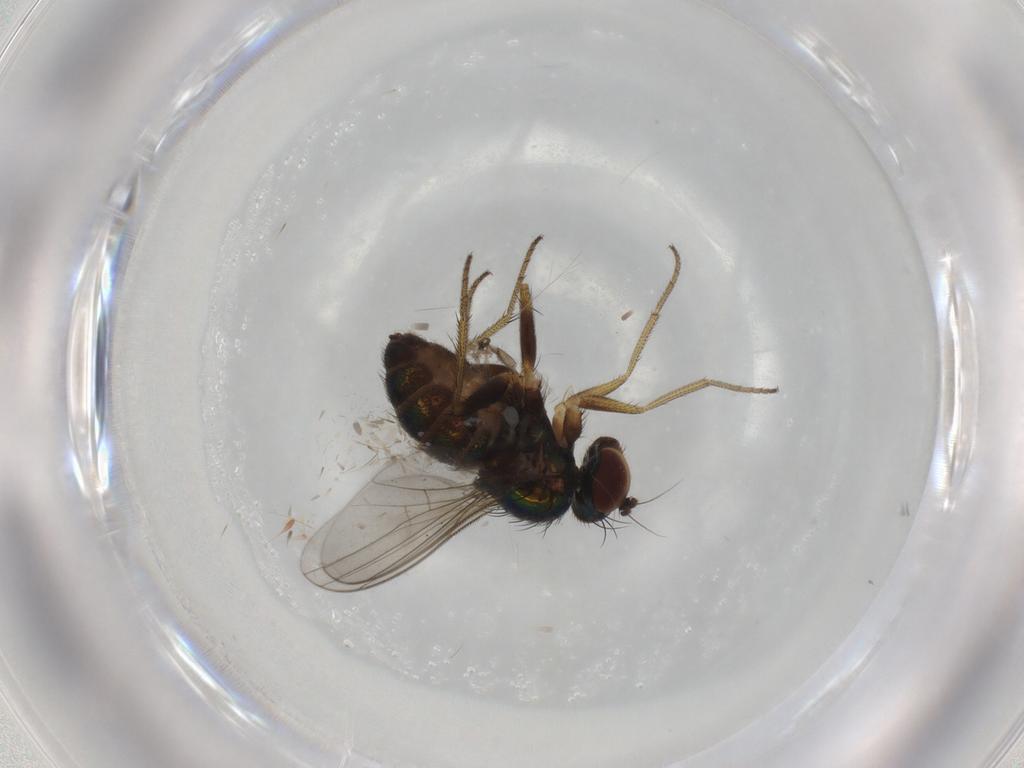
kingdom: Animalia
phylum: Arthropoda
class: Insecta
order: Diptera
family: Dolichopodidae
